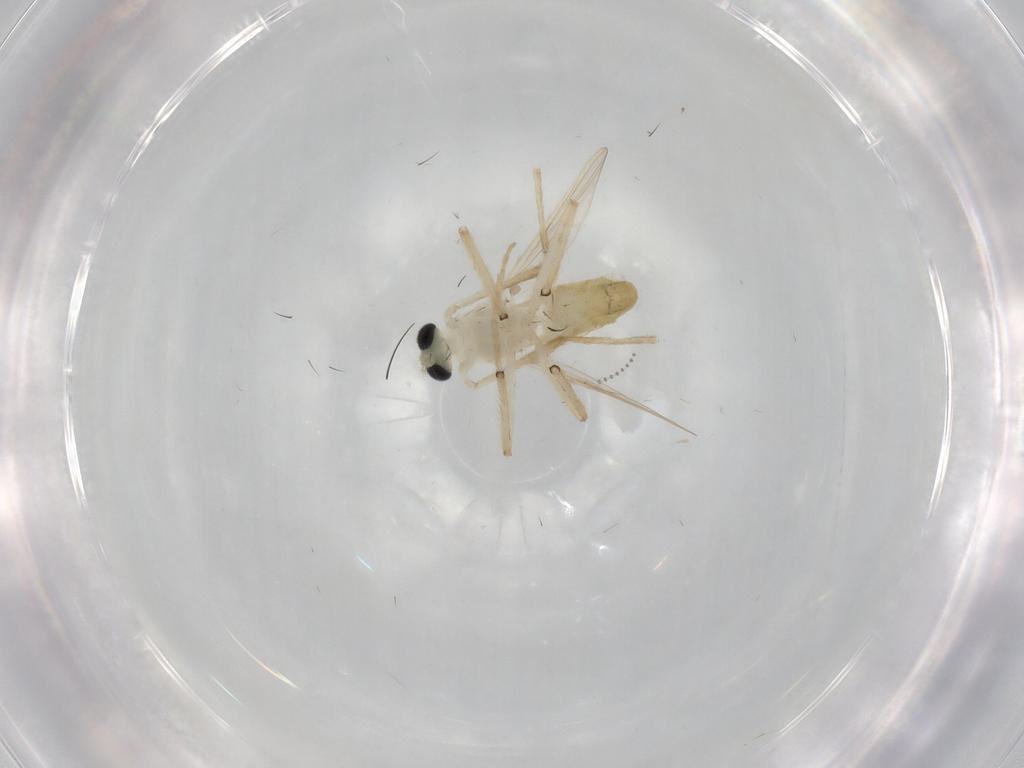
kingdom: Animalia
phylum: Arthropoda
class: Insecta
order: Diptera
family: Chironomidae
